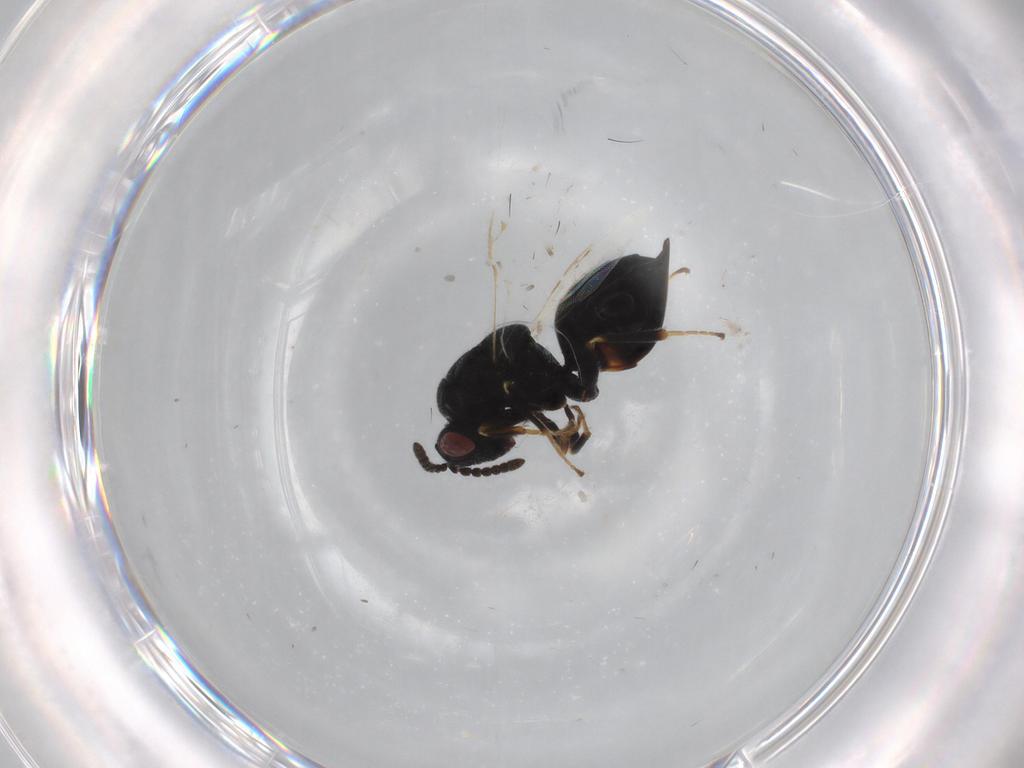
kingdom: Animalia
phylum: Arthropoda
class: Insecta
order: Hymenoptera
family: Eurytomidae
